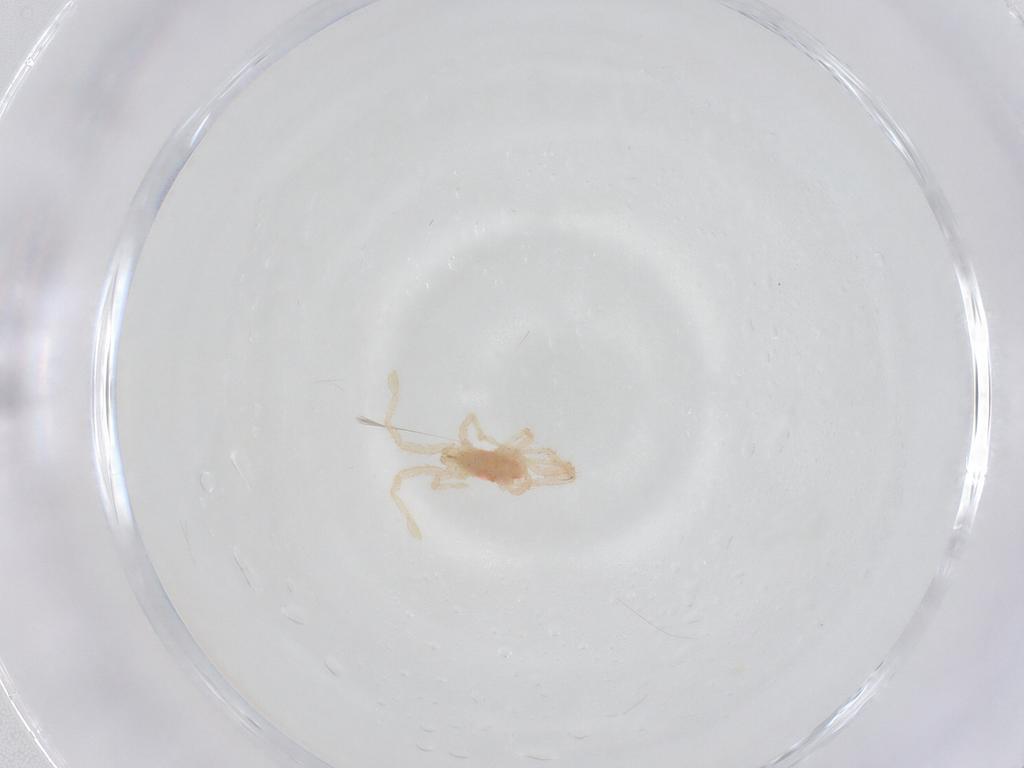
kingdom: Animalia
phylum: Arthropoda
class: Arachnida
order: Trombidiformes
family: Erythraeidae
